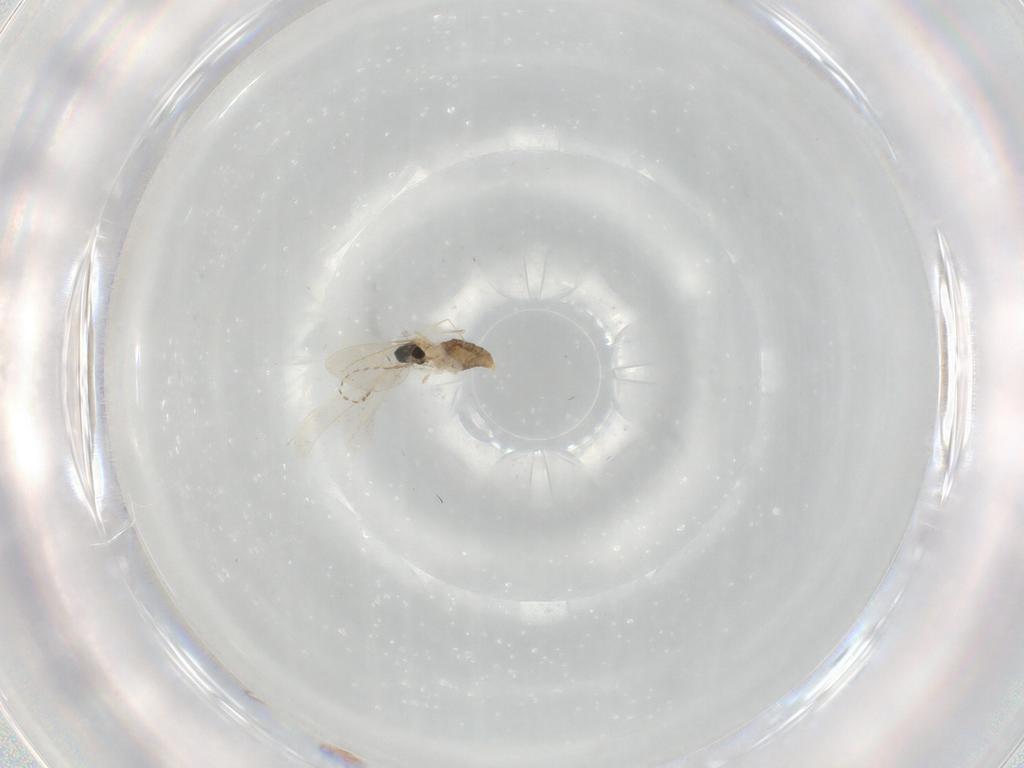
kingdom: Animalia
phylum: Arthropoda
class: Insecta
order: Diptera
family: Cecidomyiidae
